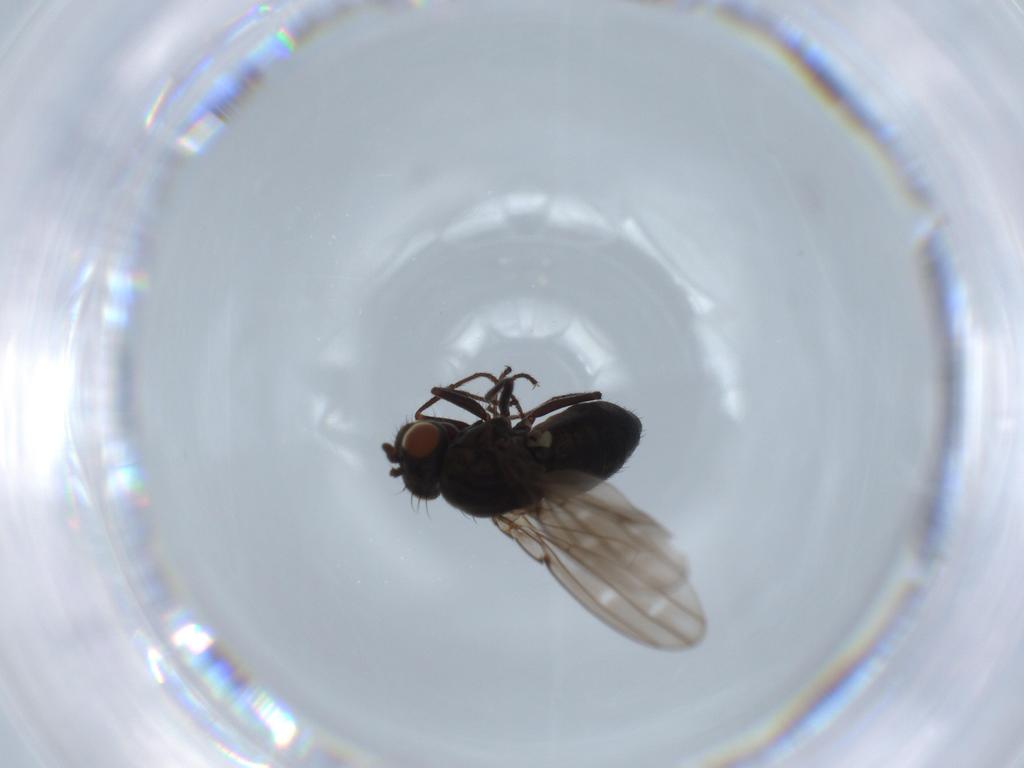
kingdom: Animalia
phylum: Arthropoda
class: Insecta
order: Diptera
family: Ephydridae
